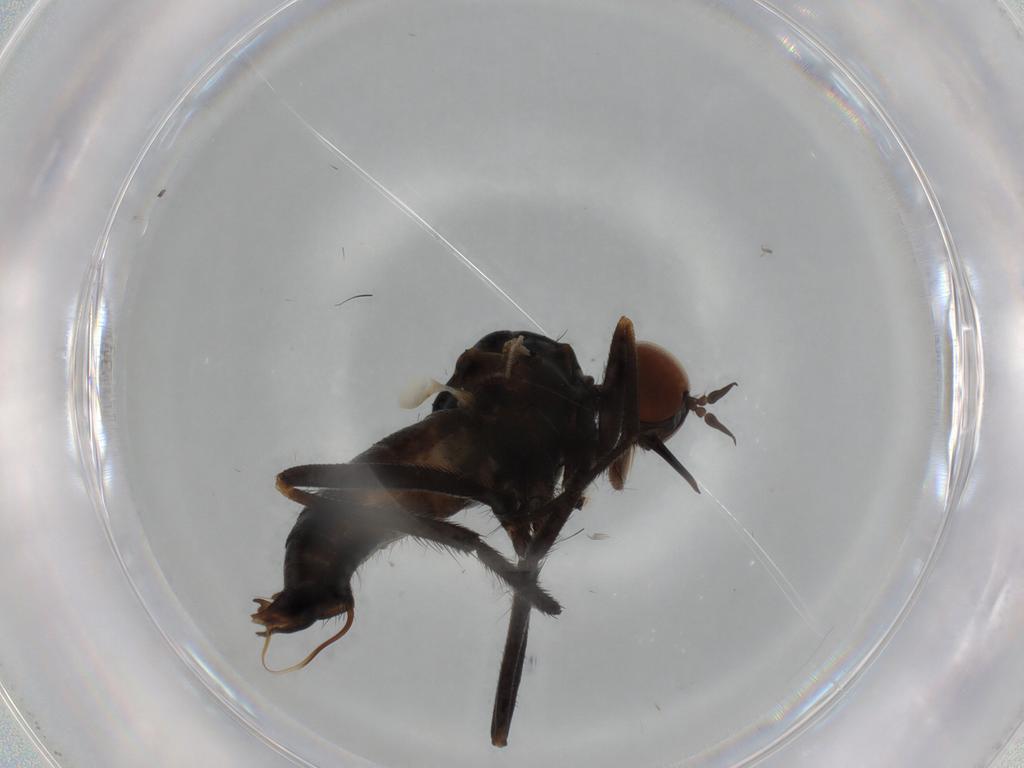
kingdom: Animalia
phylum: Arthropoda
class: Insecta
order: Diptera
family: Empididae
